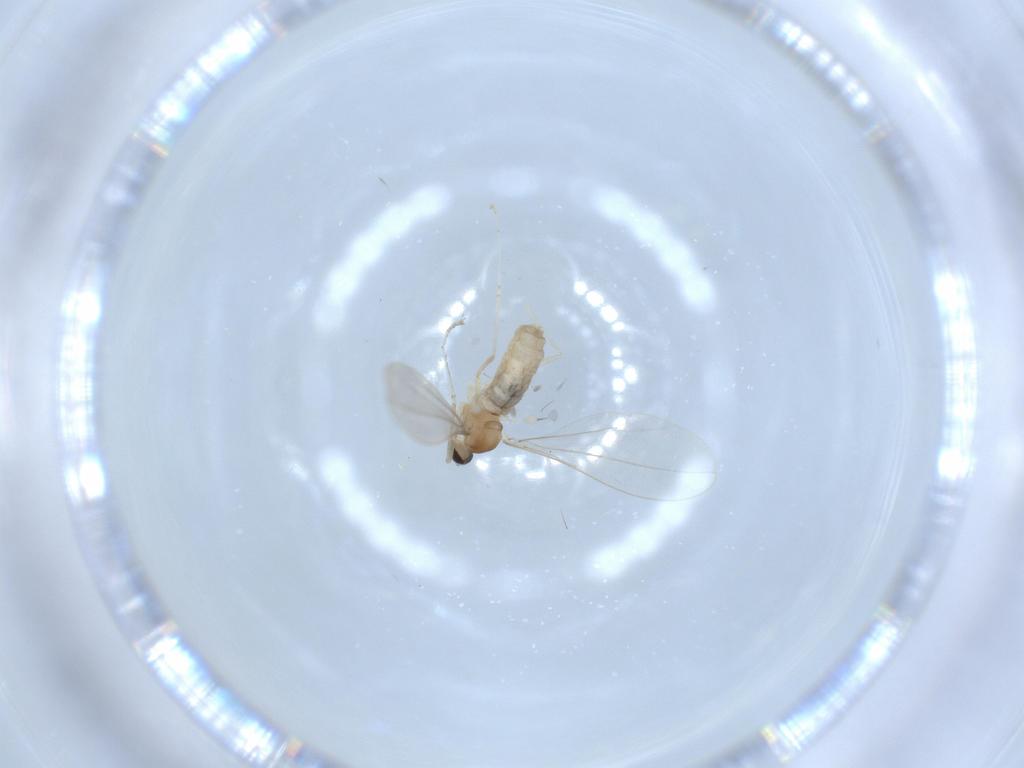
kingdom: Animalia
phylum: Arthropoda
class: Insecta
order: Diptera
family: Cecidomyiidae
